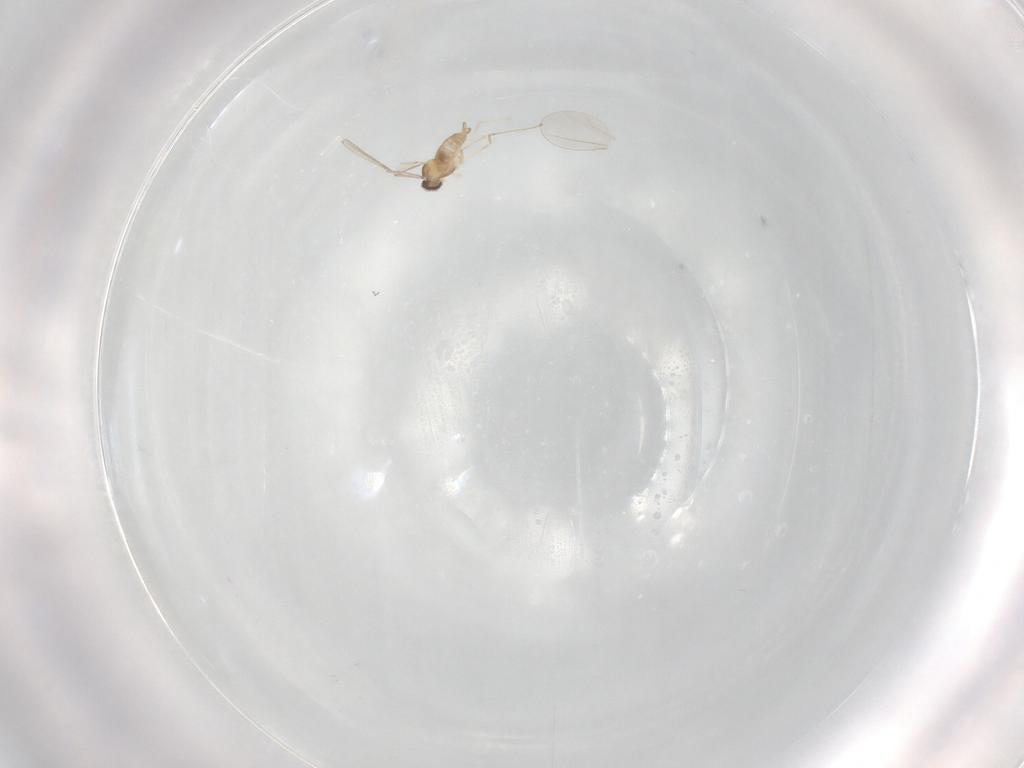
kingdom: Animalia
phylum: Arthropoda
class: Insecta
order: Diptera
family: Cecidomyiidae
